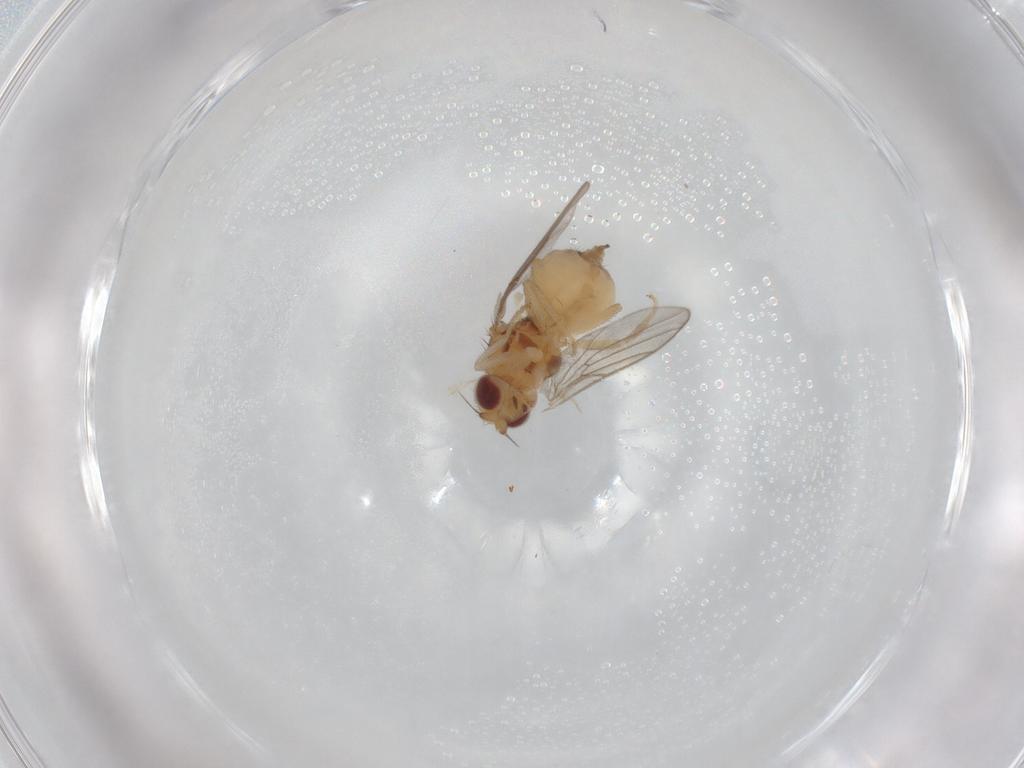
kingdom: Animalia
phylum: Arthropoda
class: Insecta
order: Diptera
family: Chloropidae
